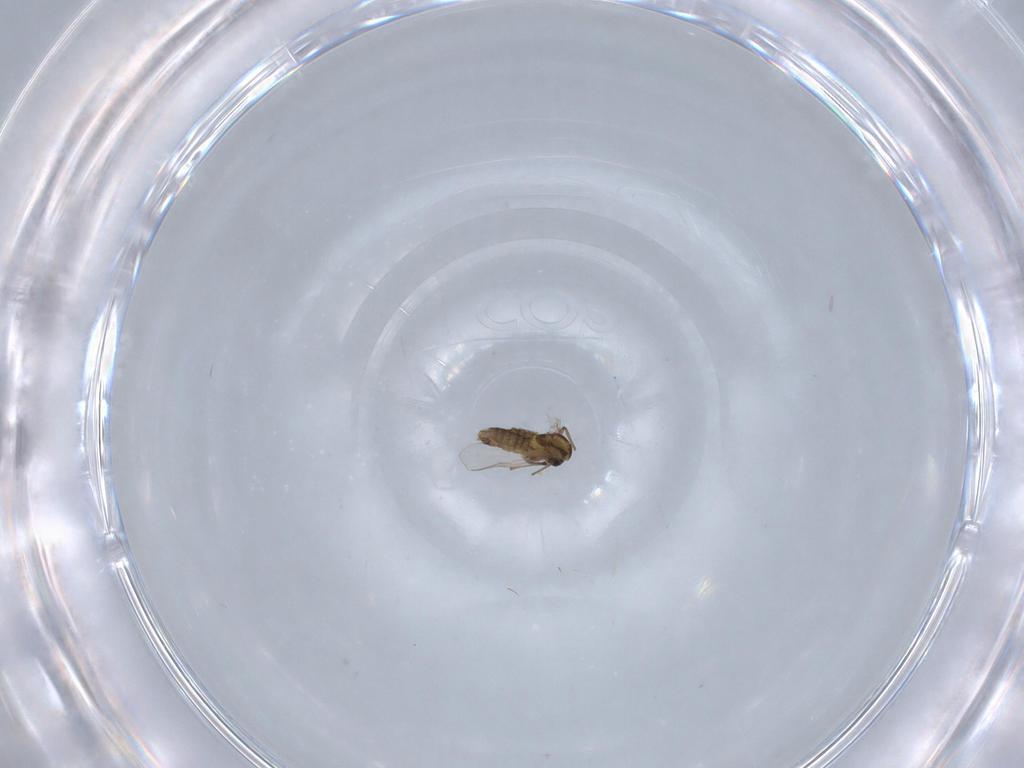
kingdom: Animalia
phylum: Arthropoda
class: Insecta
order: Diptera
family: Chironomidae
